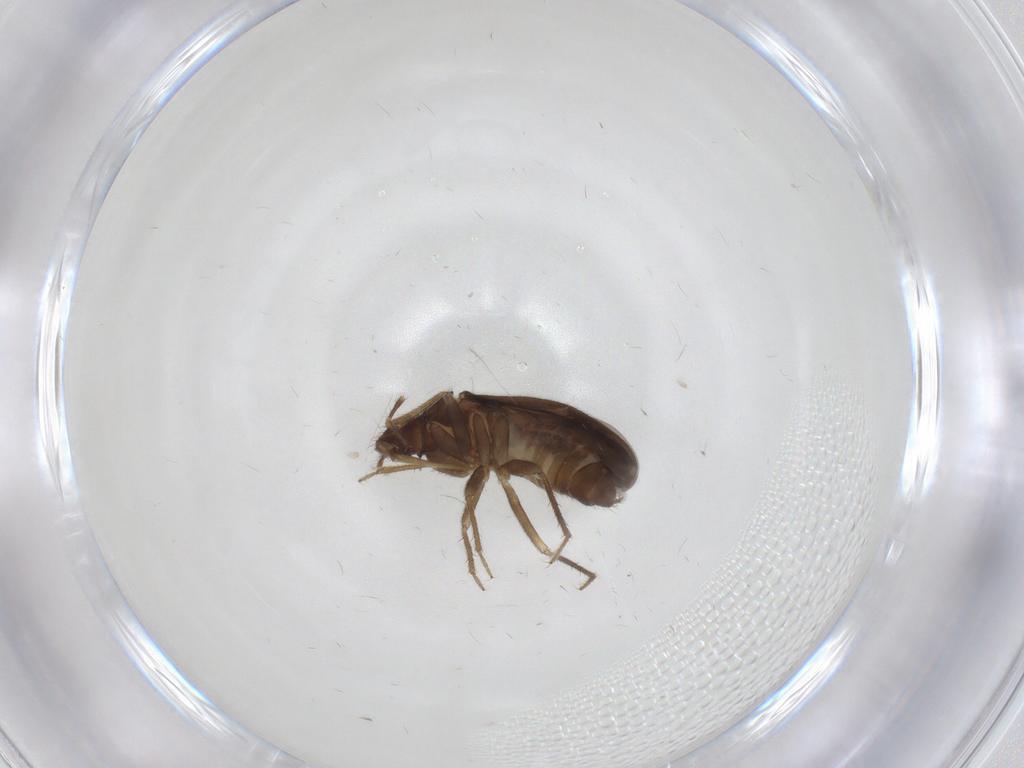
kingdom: Animalia
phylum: Arthropoda
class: Insecta
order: Hemiptera
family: Ceratocombidae
